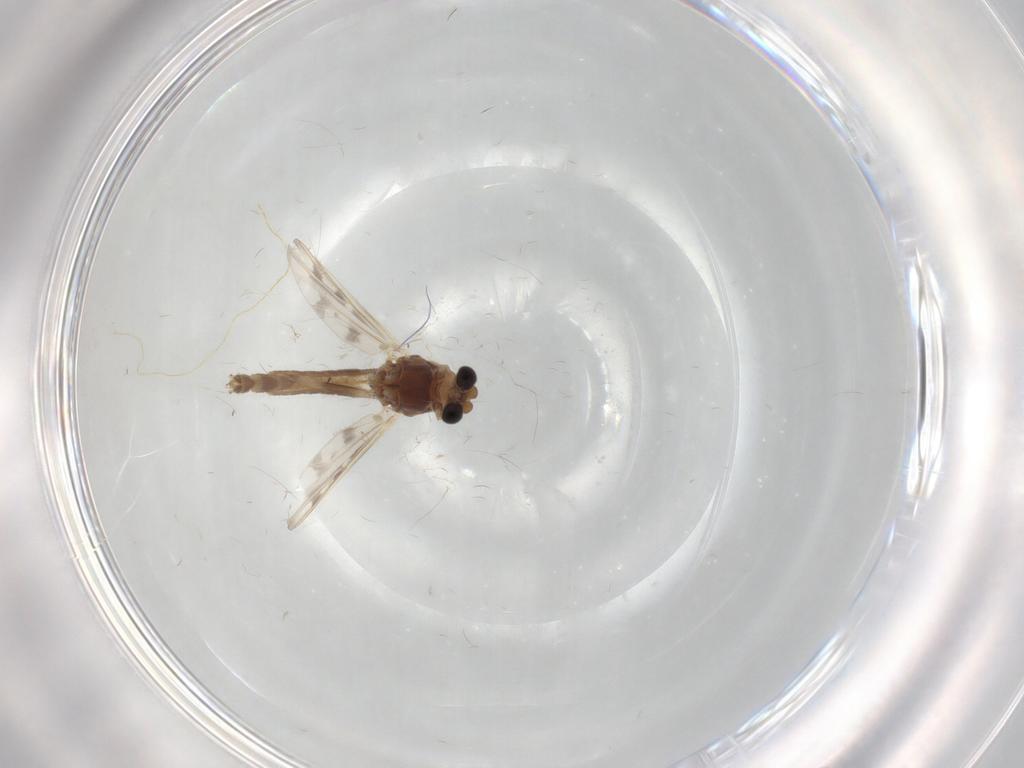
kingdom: Animalia
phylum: Arthropoda
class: Insecta
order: Diptera
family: Chironomidae
